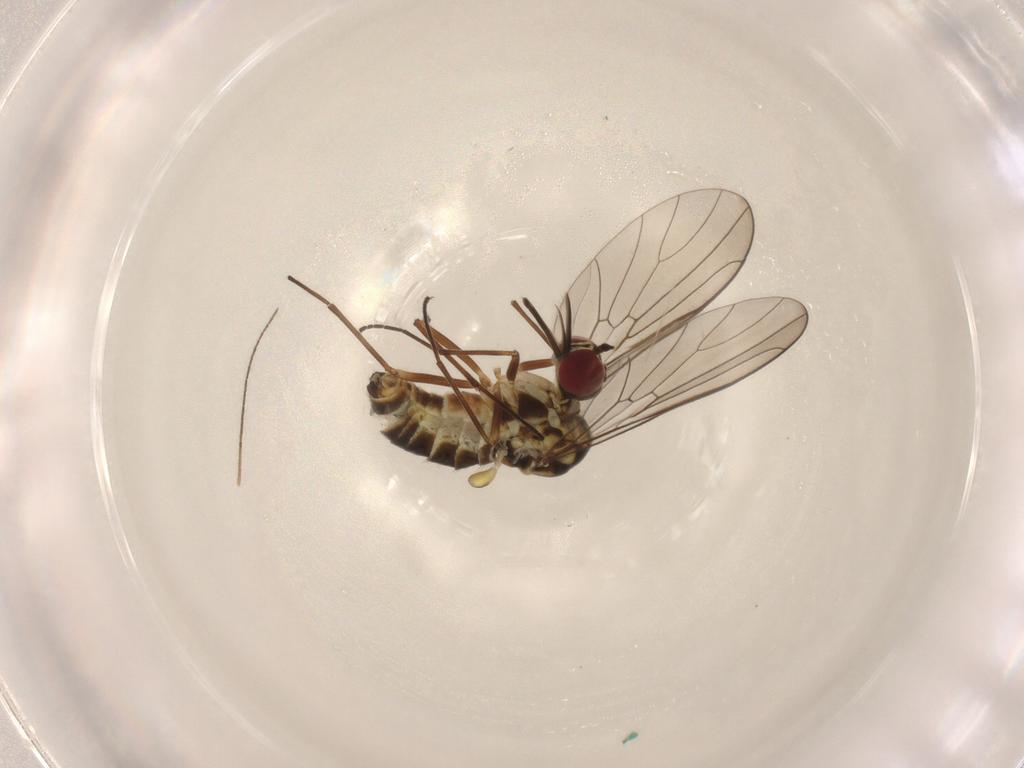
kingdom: Animalia
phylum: Arthropoda
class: Insecta
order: Diptera
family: Bombyliidae
